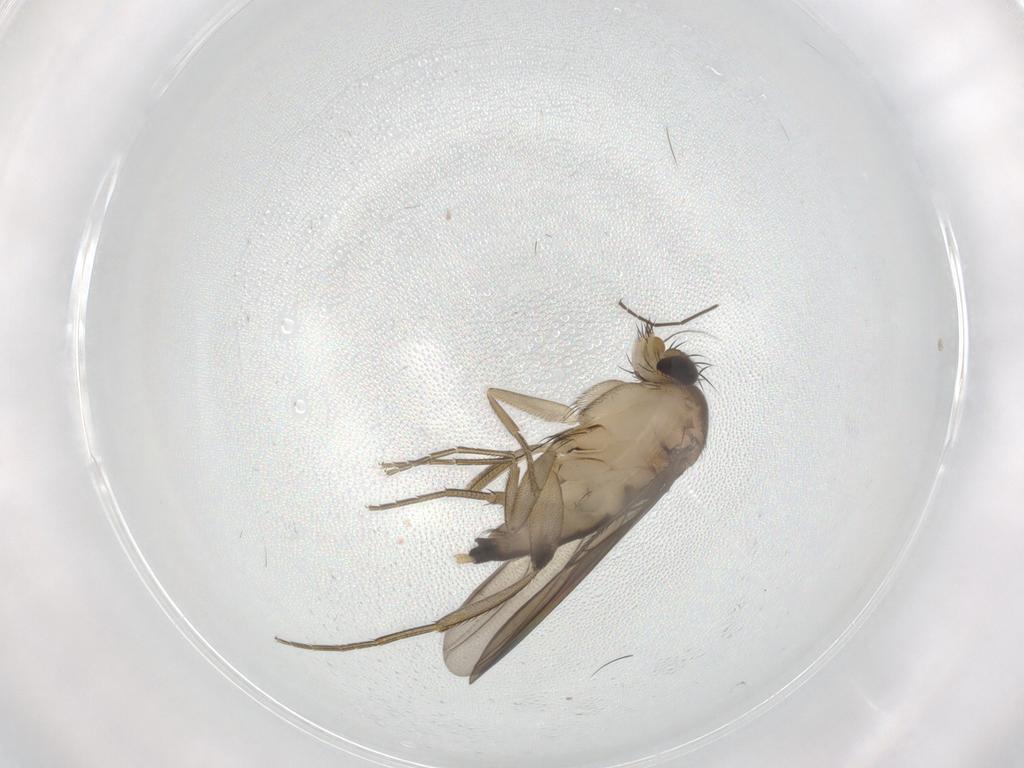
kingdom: Animalia
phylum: Arthropoda
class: Insecta
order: Diptera
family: Phoridae
